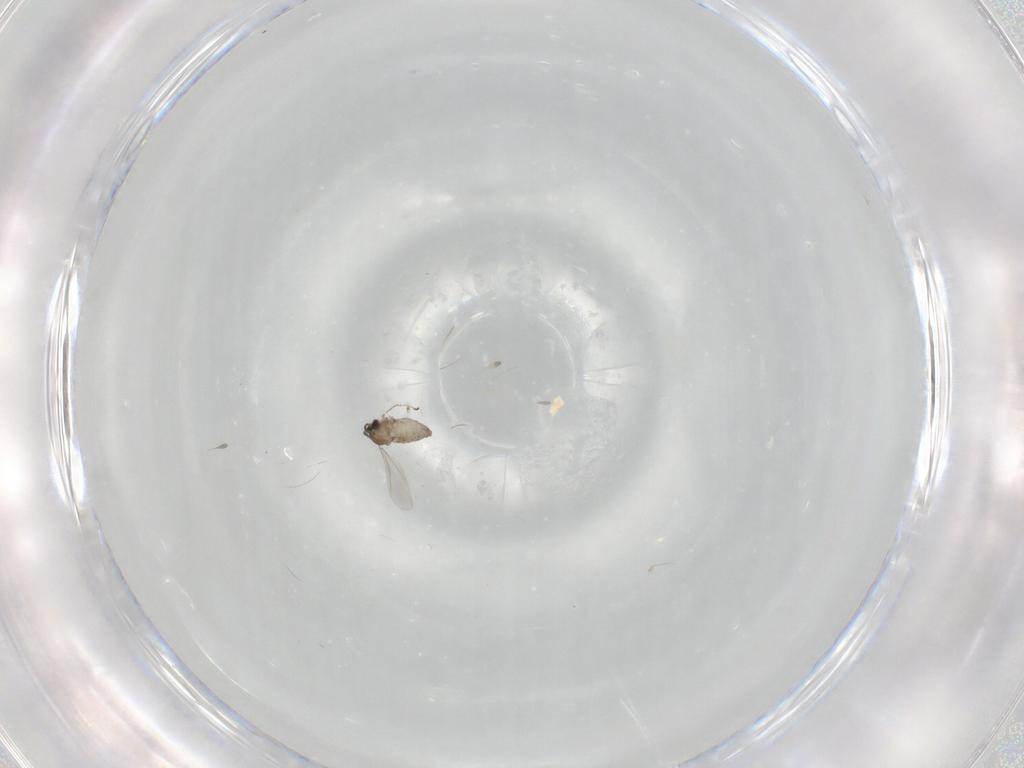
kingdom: Animalia
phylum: Arthropoda
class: Insecta
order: Diptera
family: Cecidomyiidae
